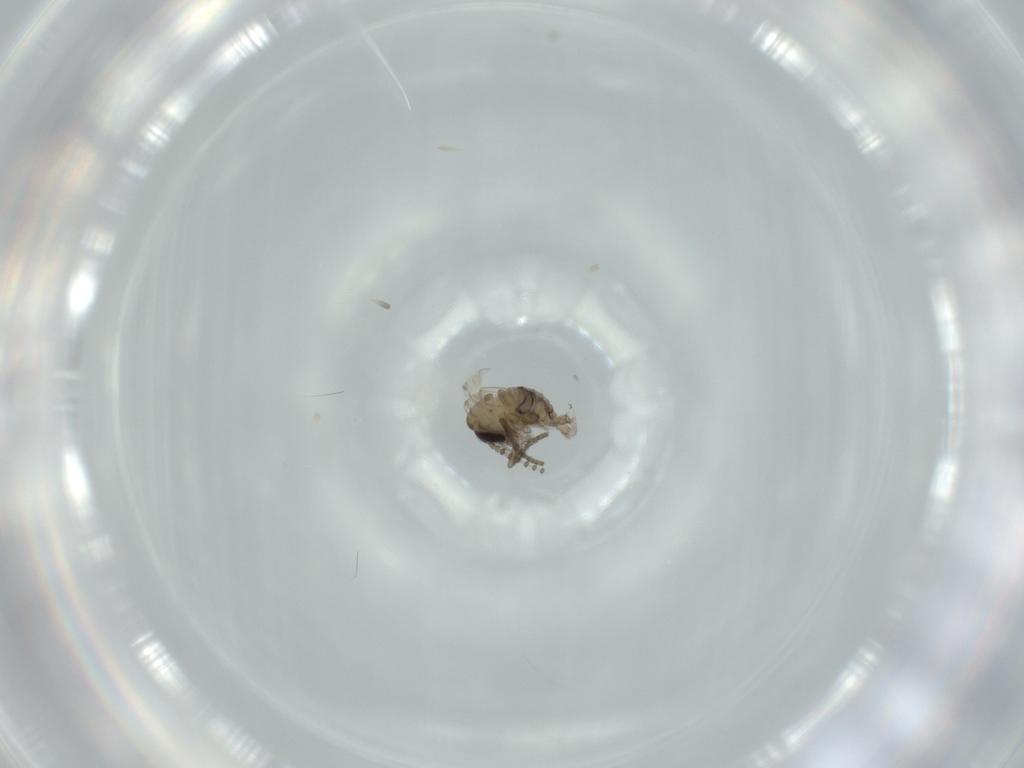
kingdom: Animalia
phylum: Arthropoda
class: Insecta
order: Diptera
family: Psychodidae
